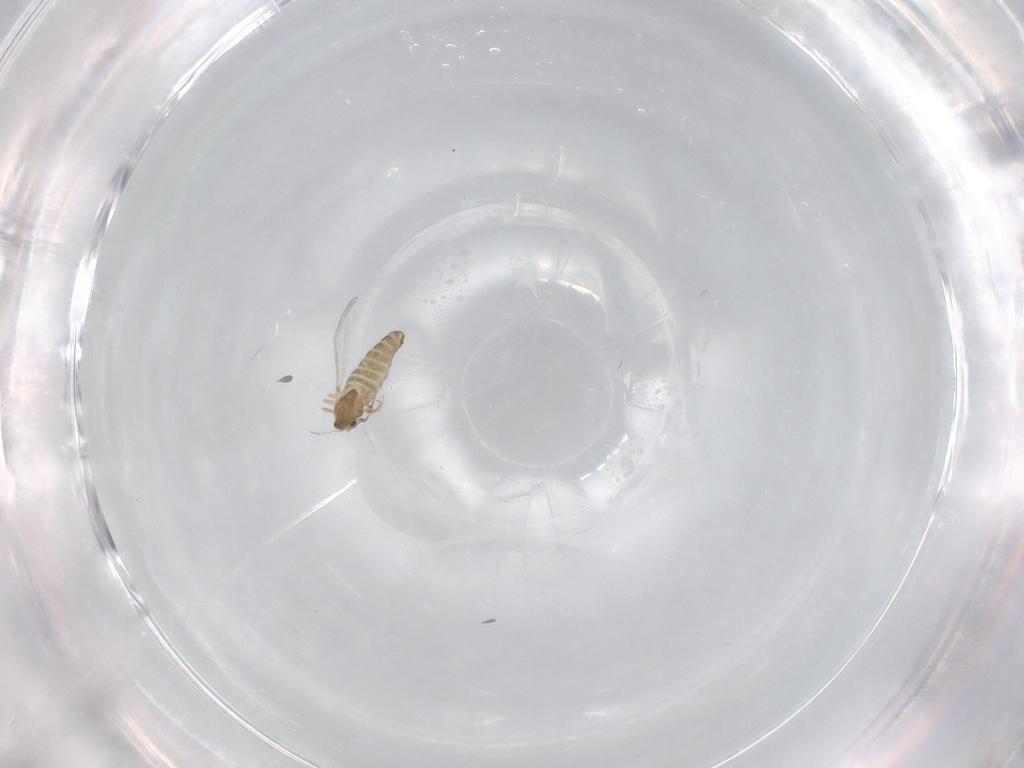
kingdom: Animalia
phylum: Arthropoda
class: Insecta
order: Diptera
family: Chironomidae
